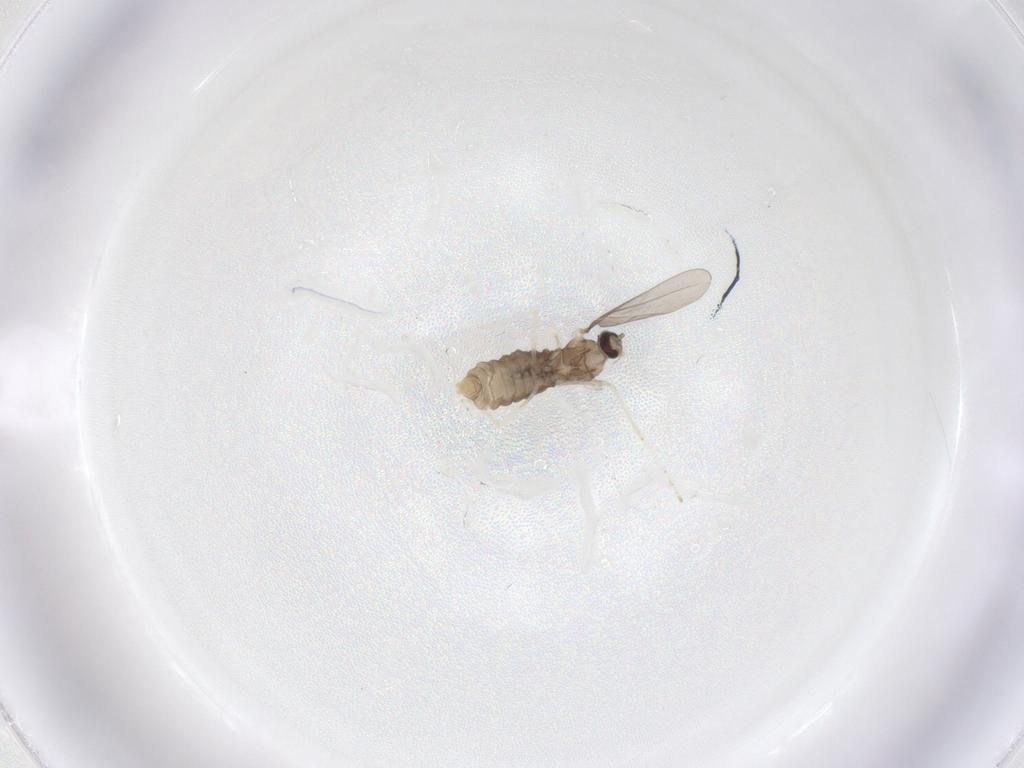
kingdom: Animalia
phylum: Arthropoda
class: Insecta
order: Diptera
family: Cecidomyiidae
